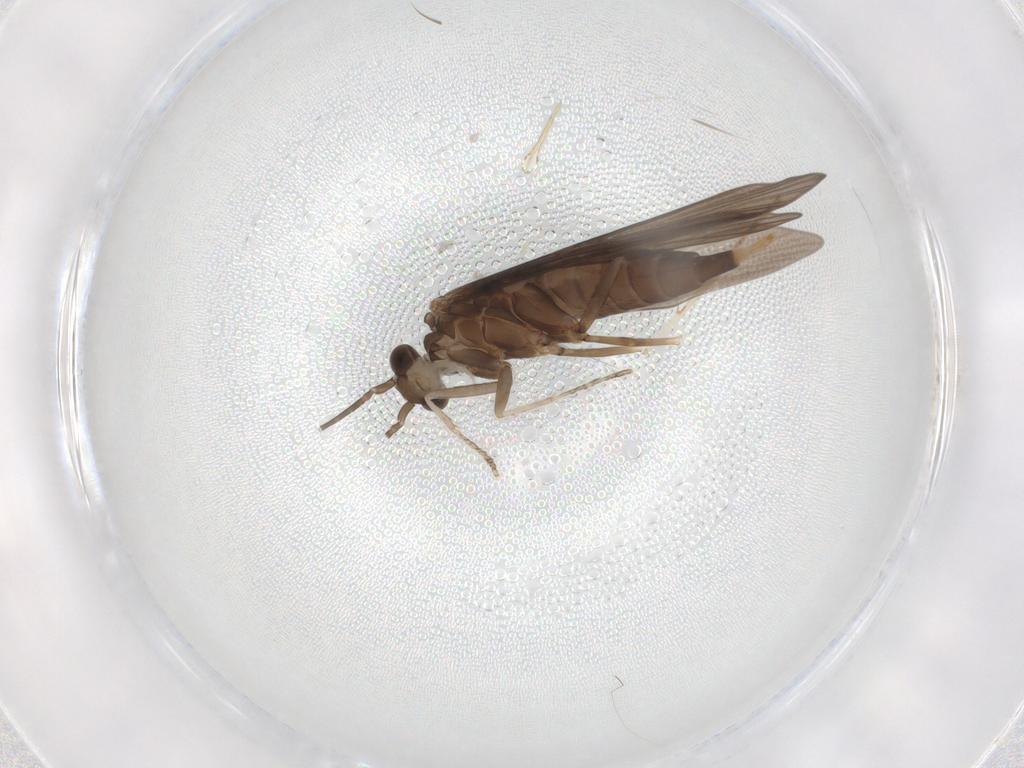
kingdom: Animalia
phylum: Arthropoda
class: Insecta
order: Trichoptera
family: Xiphocentronidae
